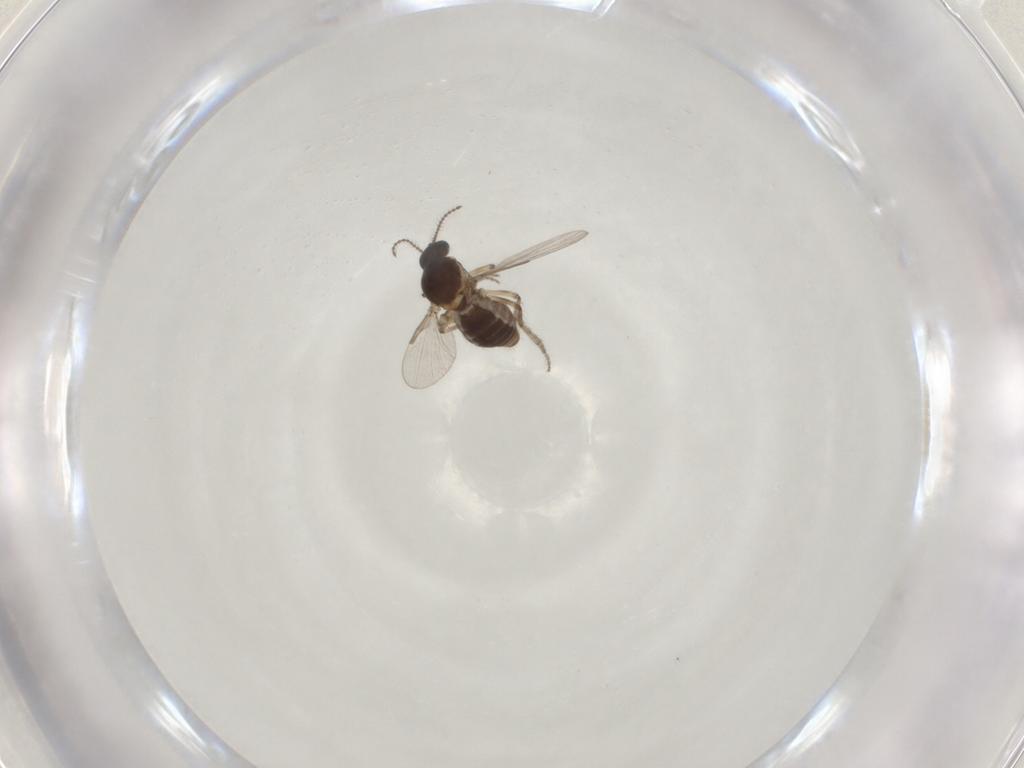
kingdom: Animalia
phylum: Arthropoda
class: Insecta
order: Diptera
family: Ceratopogonidae
